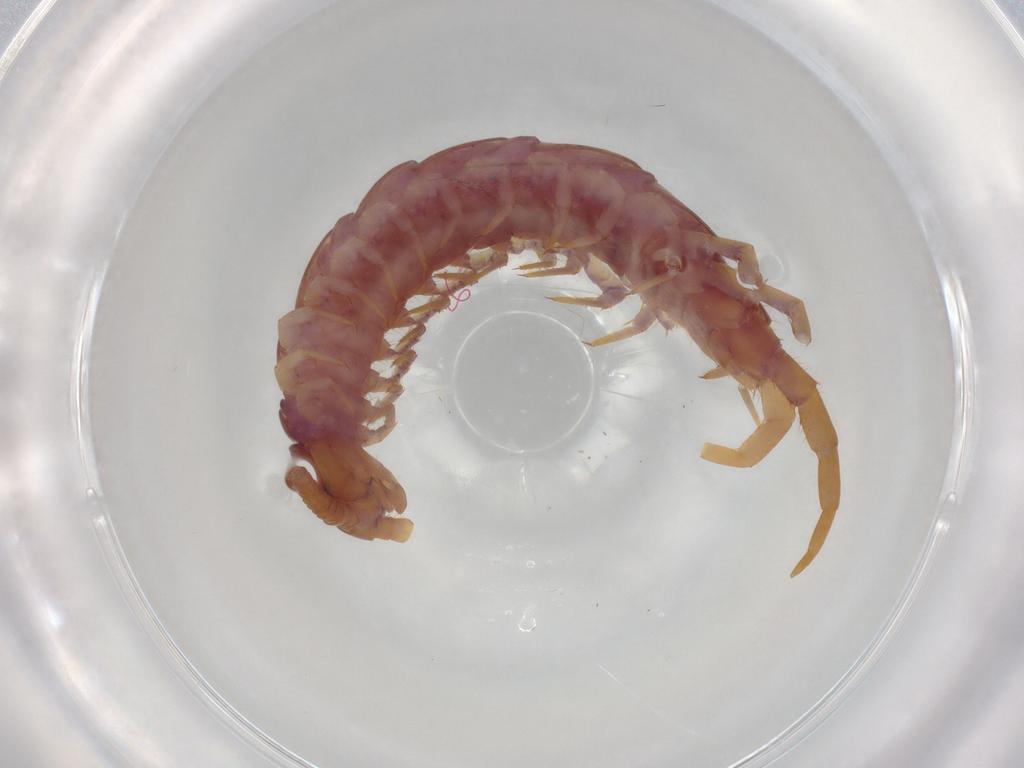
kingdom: Animalia
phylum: Arthropoda
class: Chilopoda
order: Lithobiomorpha
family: Lithobiidae
